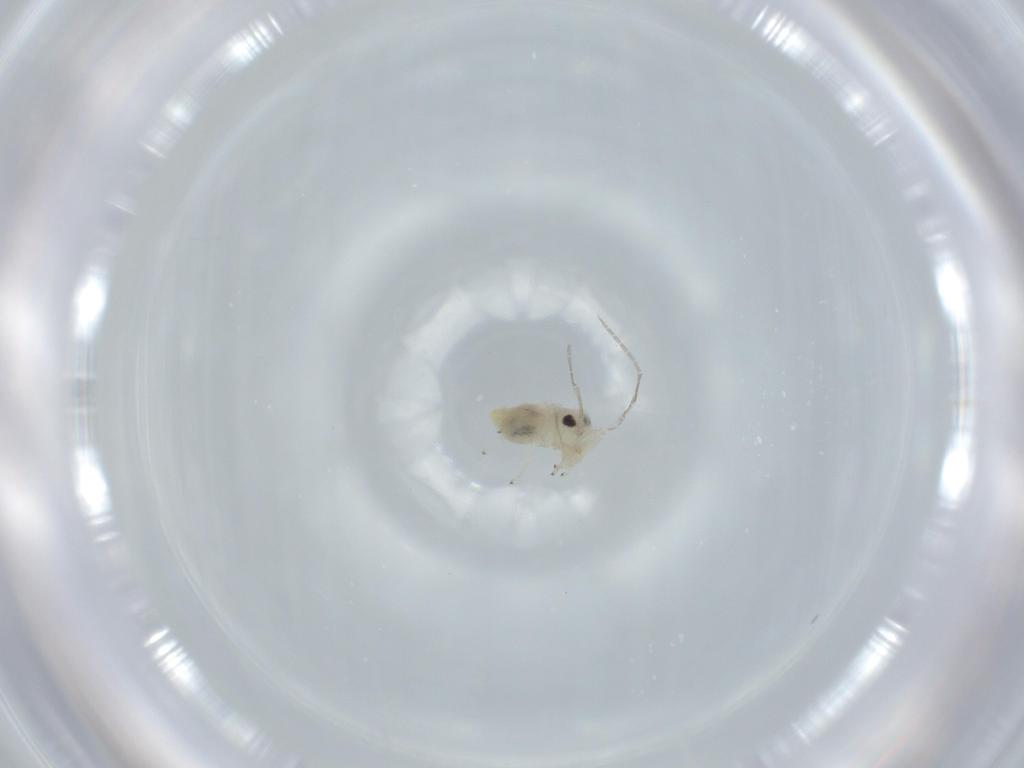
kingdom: Animalia
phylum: Arthropoda
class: Insecta
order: Psocodea
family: Caeciliusidae
